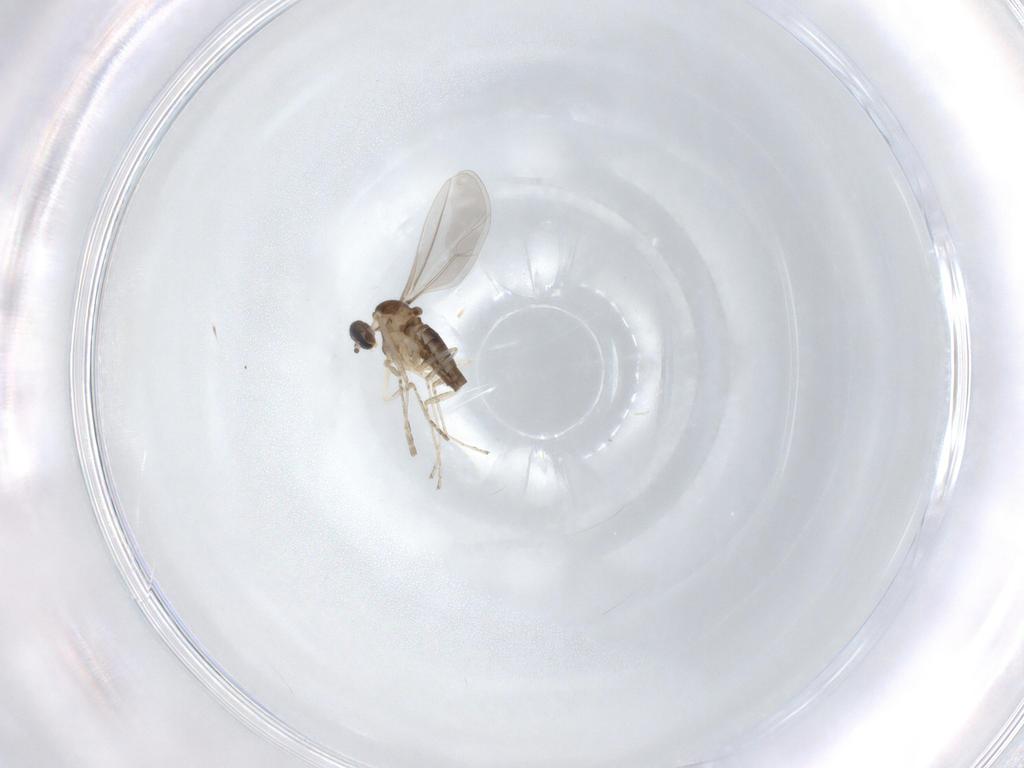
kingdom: Animalia
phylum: Arthropoda
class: Insecta
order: Diptera
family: Cecidomyiidae
